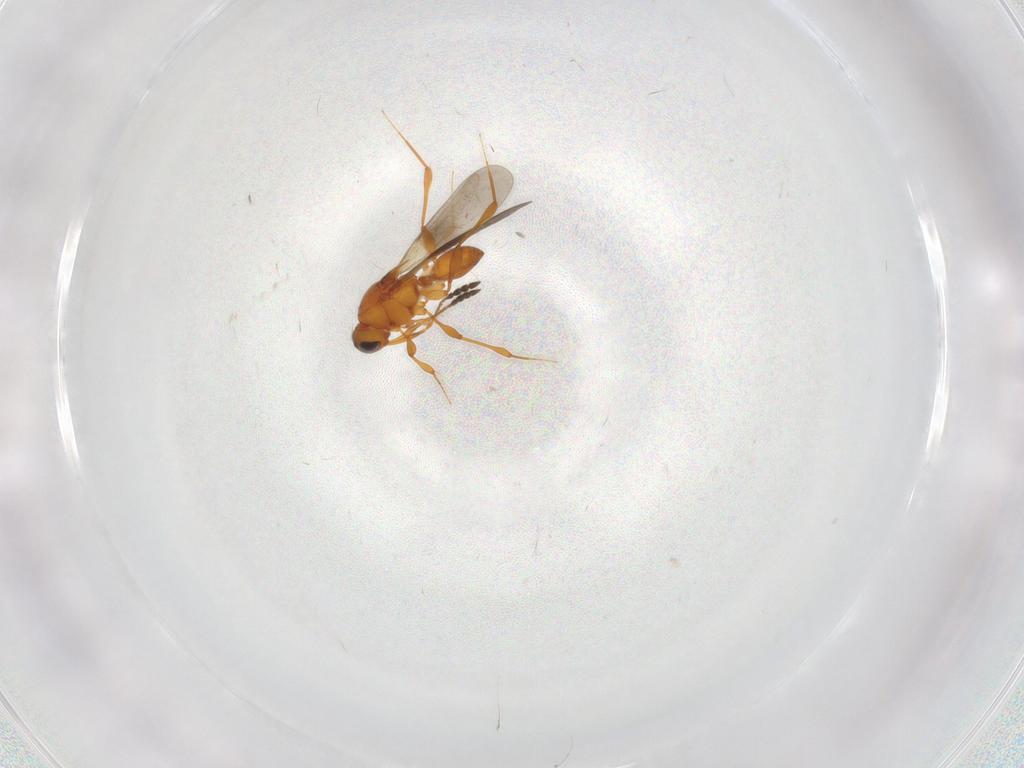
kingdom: Animalia
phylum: Arthropoda
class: Insecta
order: Hymenoptera
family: Platygastridae
